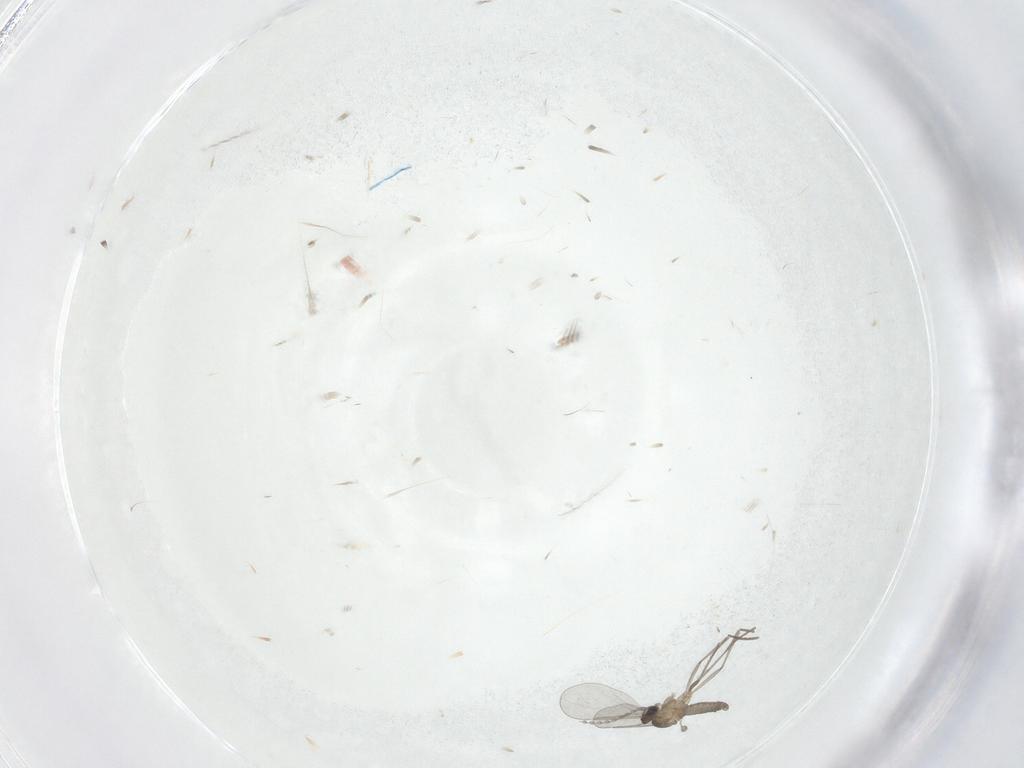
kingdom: Animalia
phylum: Arthropoda
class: Insecta
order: Diptera
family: Cecidomyiidae
